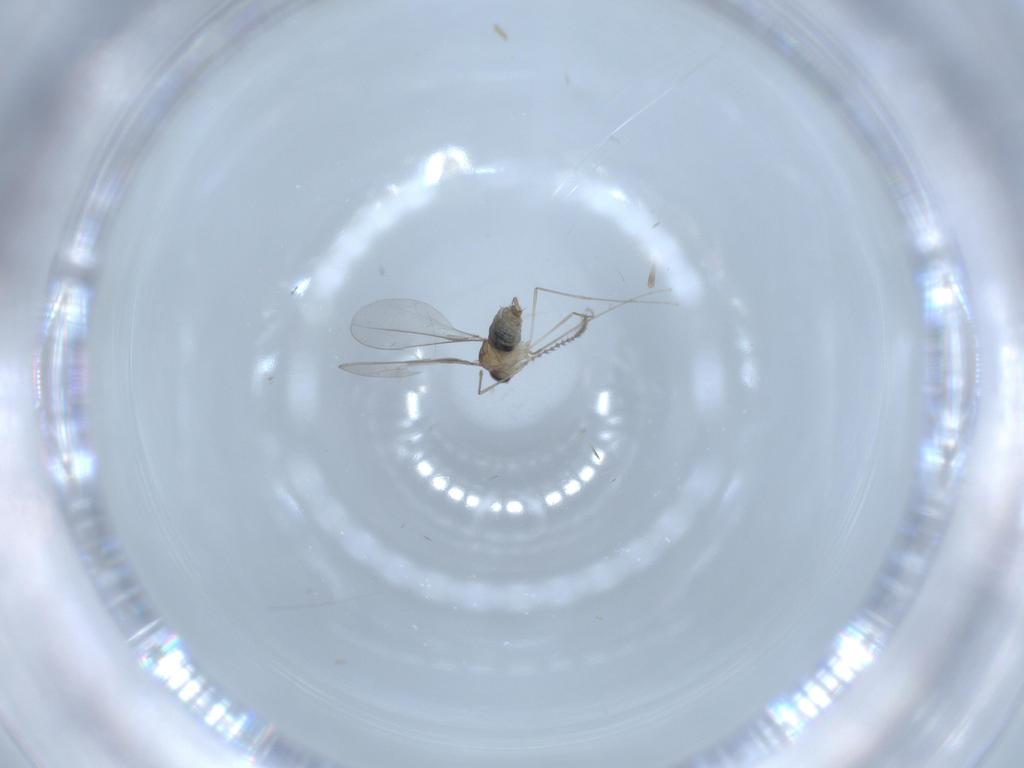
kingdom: Animalia
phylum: Arthropoda
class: Insecta
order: Diptera
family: Cecidomyiidae
